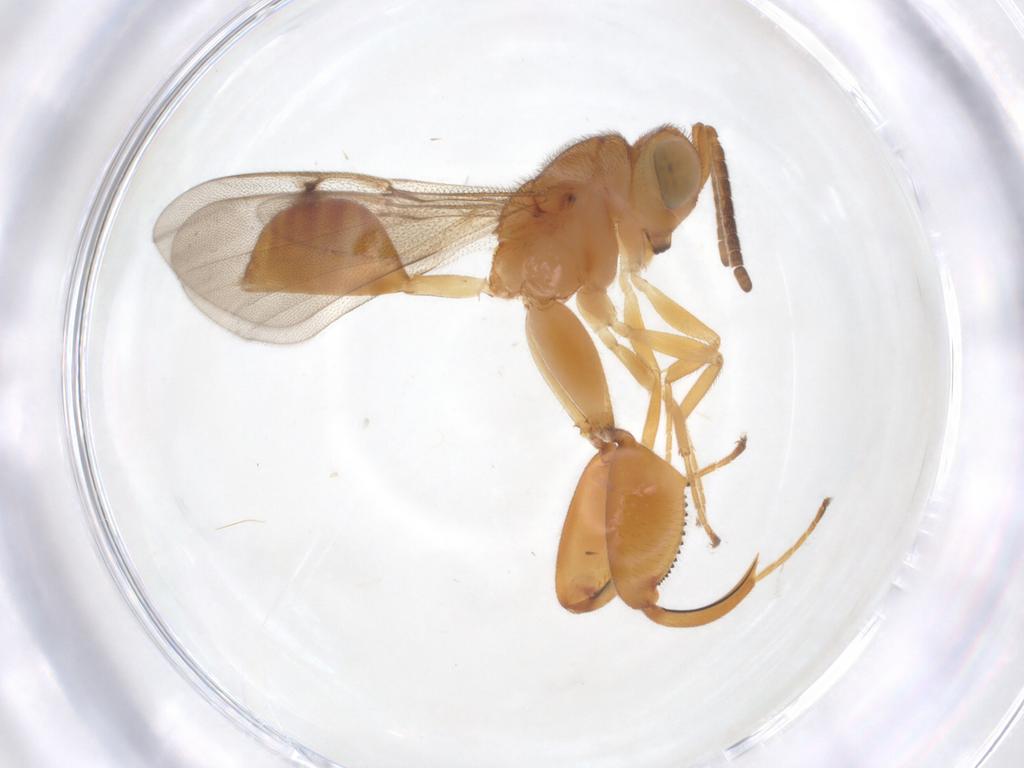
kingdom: Animalia
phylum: Arthropoda
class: Insecta
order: Hymenoptera
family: Chalcididae
